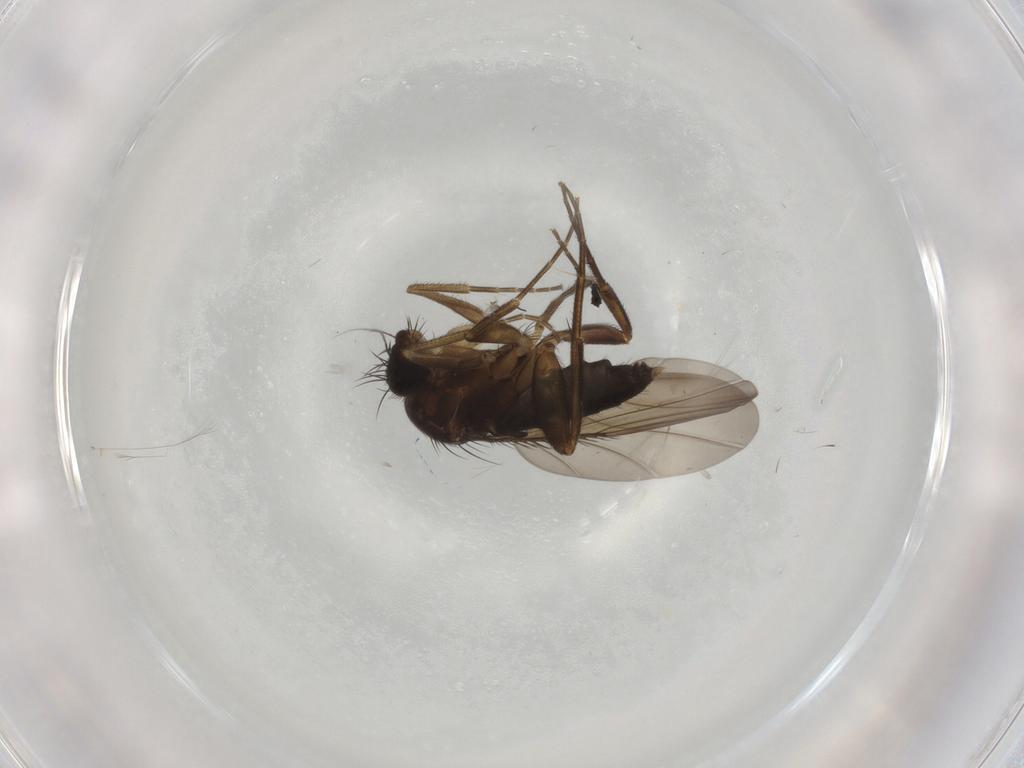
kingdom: Animalia
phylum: Arthropoda
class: Insecta
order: Diptera
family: Phoridae
